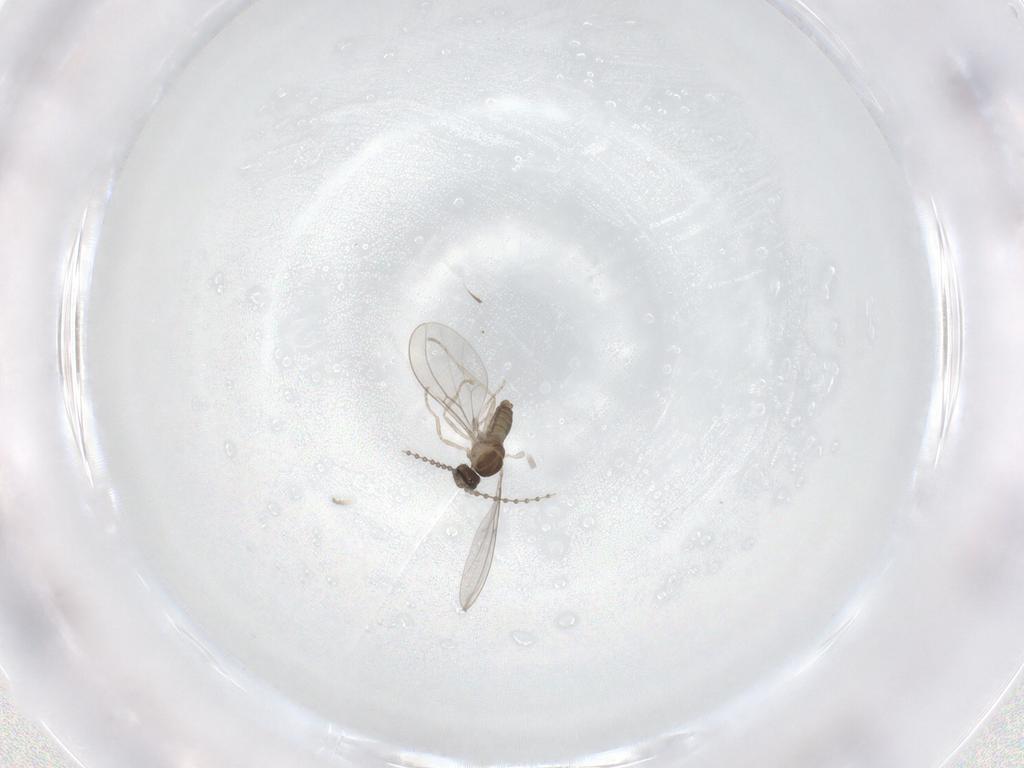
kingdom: Animalia
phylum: Arthropoda
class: Insecta
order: Diptera
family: Chironomidae
